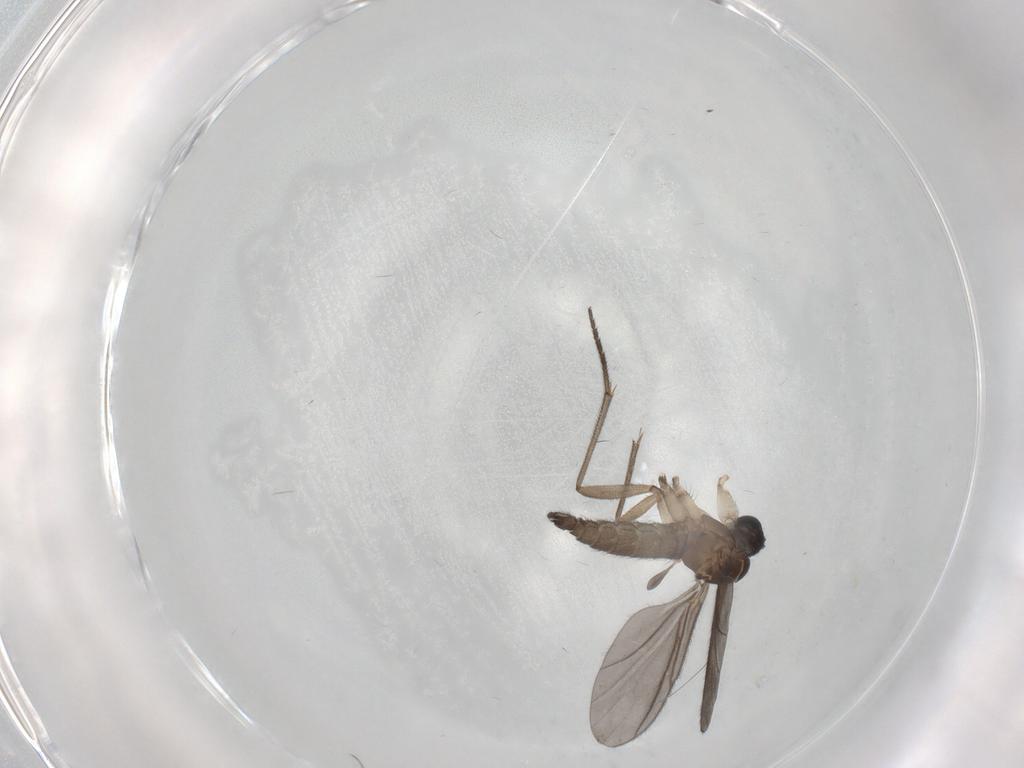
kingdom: Animalia
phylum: Arthropoda
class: Insecta
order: Diptera
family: Sciaridae
